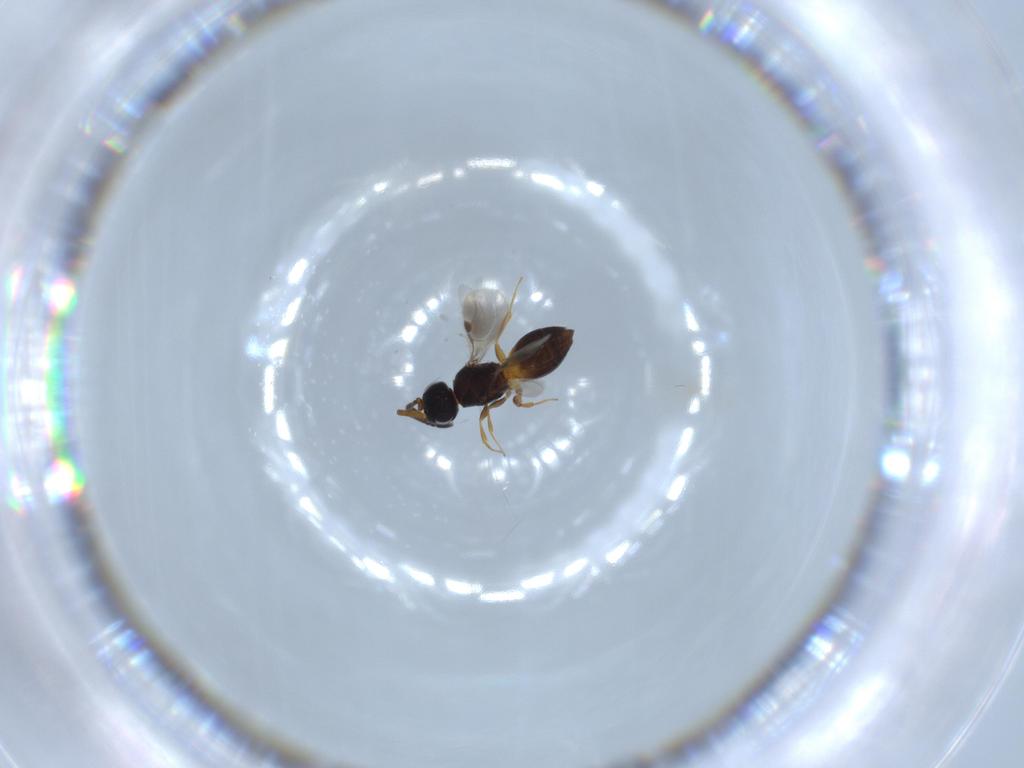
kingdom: Animalia
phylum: Arthropoda
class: Insecta
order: Hymenoptera
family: Megaspilidae
